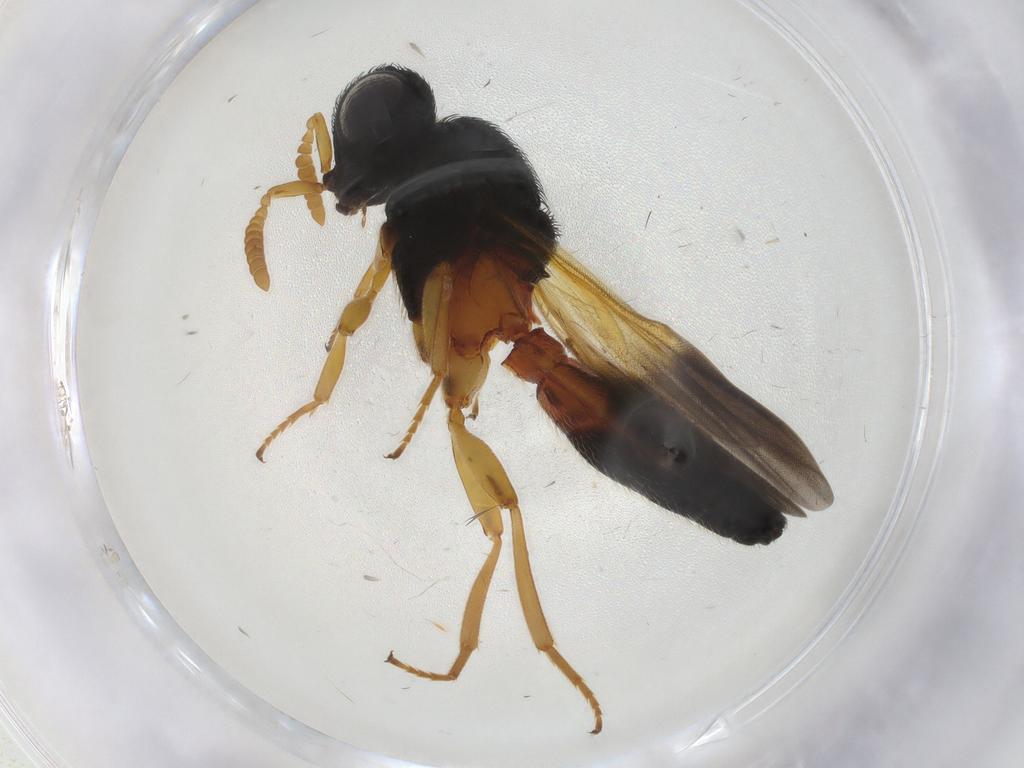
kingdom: Animalia
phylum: Arthropoda
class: Insecta
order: Hymenoptera
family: Scelionidae
